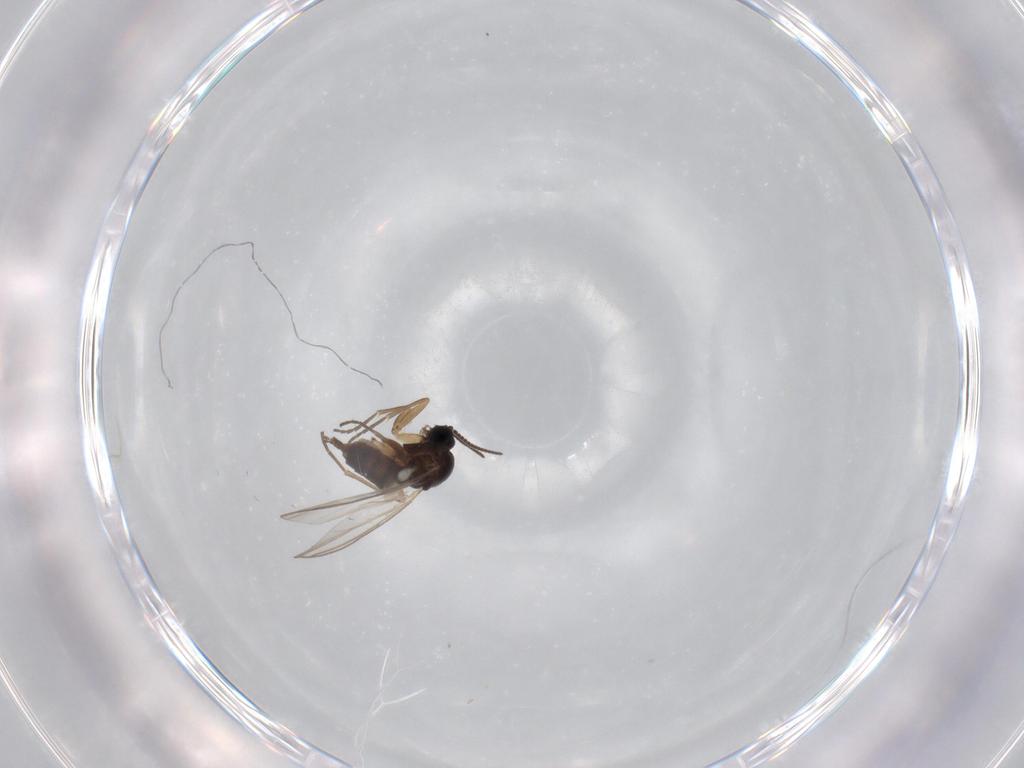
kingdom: Animalia
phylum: Arthropoda
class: Insecta
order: Diptera
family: Sciaridae
